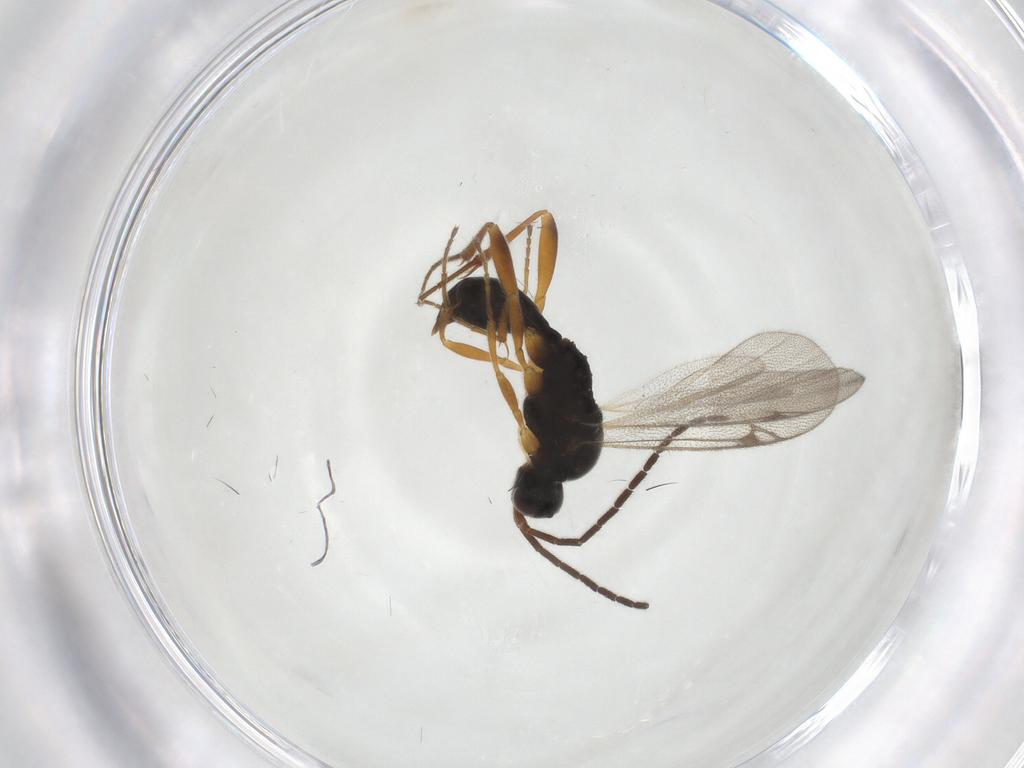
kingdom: Animalia
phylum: Arthropoda
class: Insecta
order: Hymenoptera
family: Proctotrupidae
